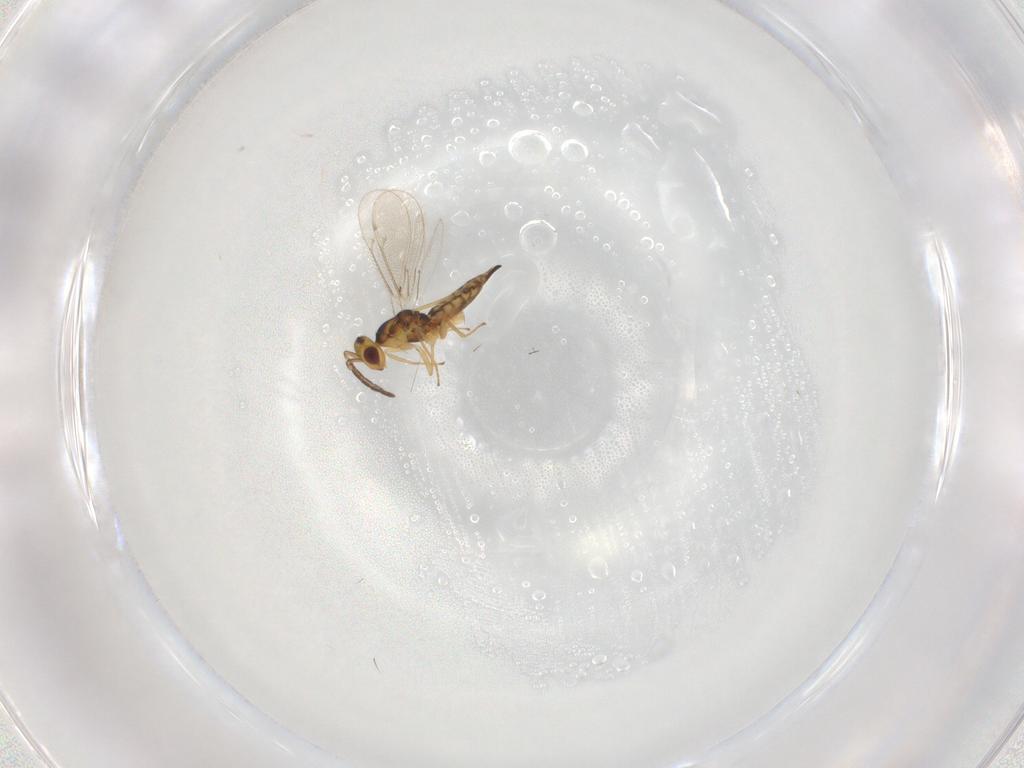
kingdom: Animalia
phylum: Arthropoda
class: Insecta
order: Hymenoptera
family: Eulophidae
